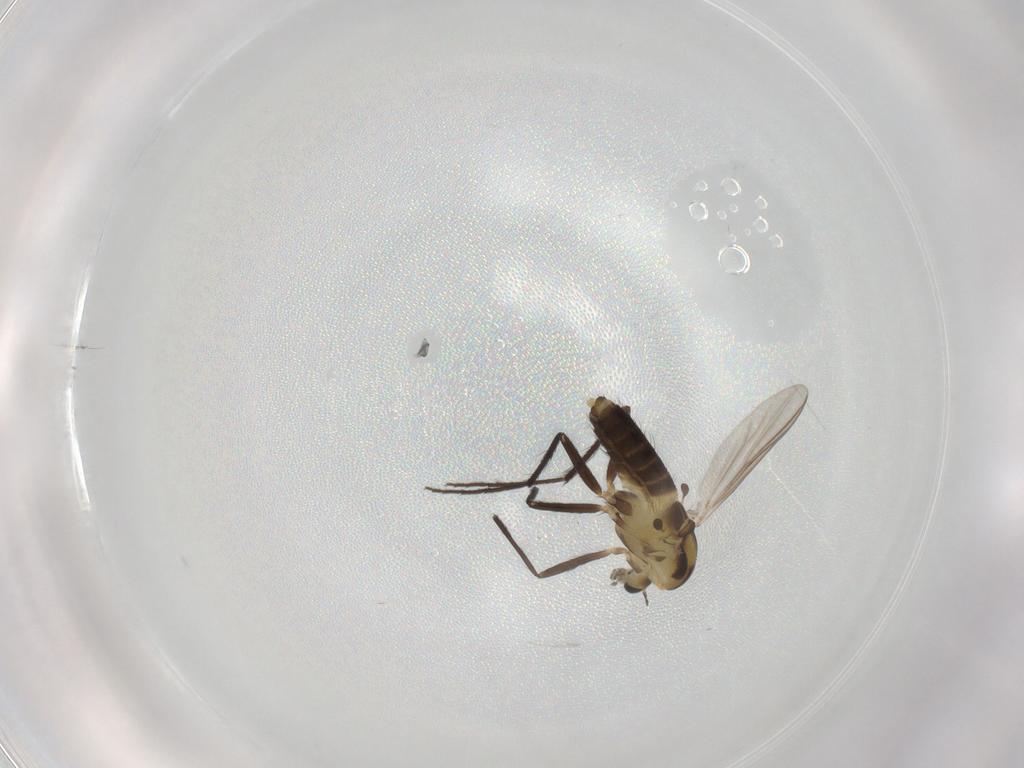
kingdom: Animalia
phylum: Arthropoda
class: Insecta
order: Diptera
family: Chironomidae
